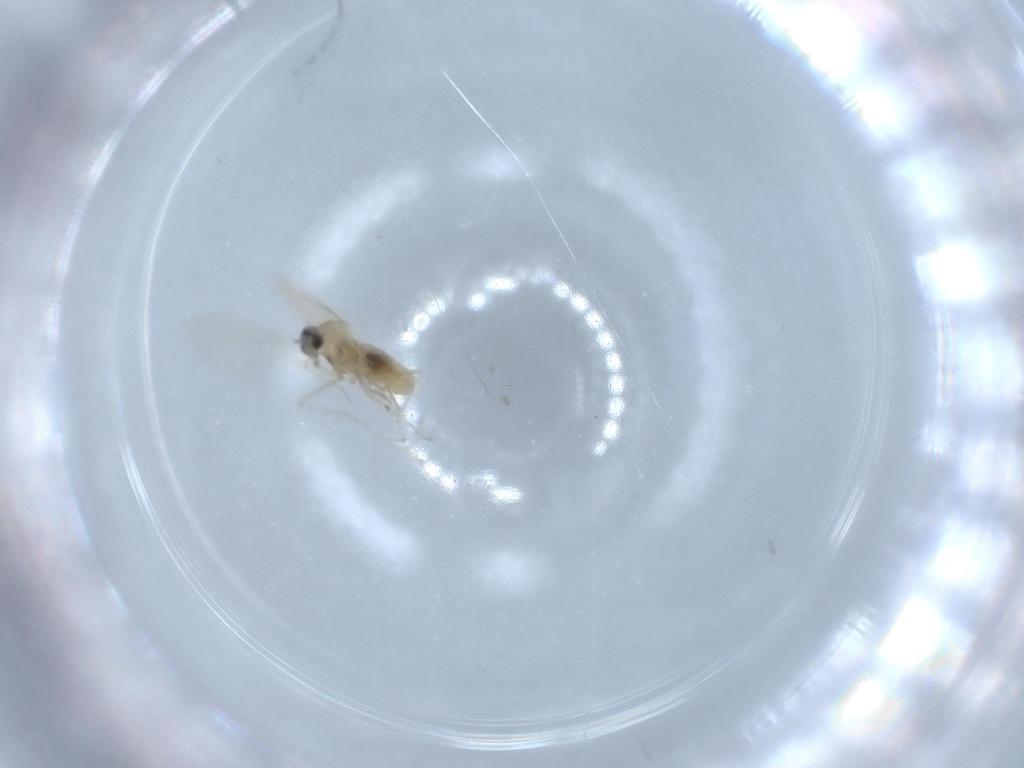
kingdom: Animalia
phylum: Arthropoda
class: Insecta
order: Diptera
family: Cecidomyiidae
